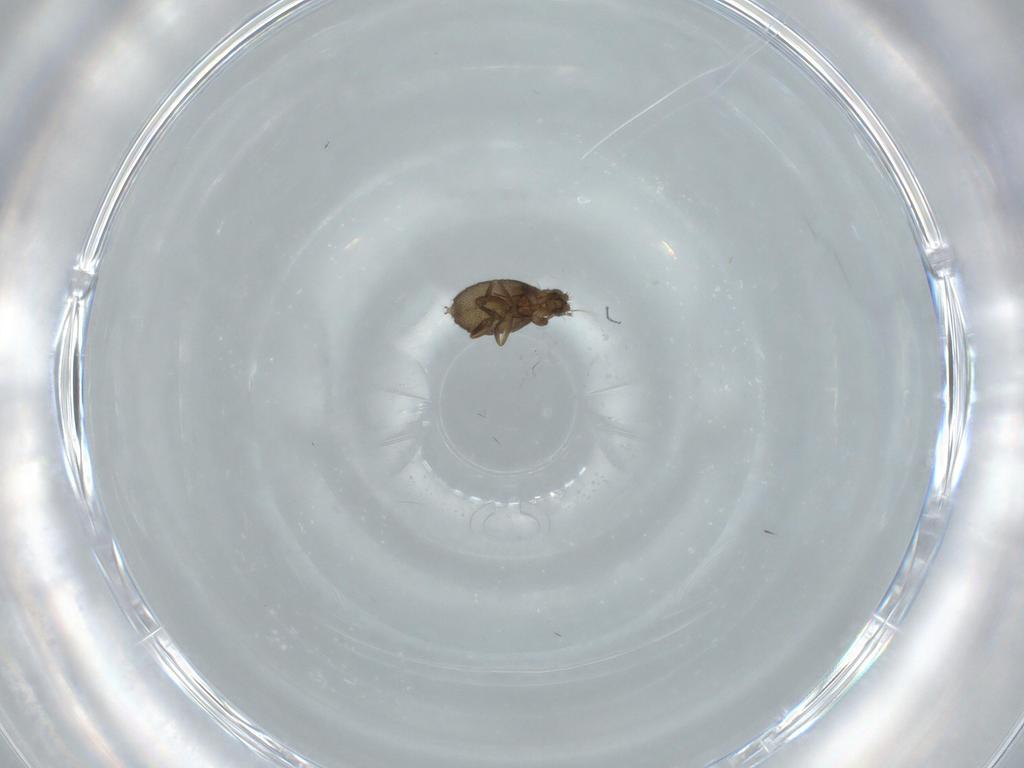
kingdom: Animalia
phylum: Arthropoda
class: Insecta
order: Diptera
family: Phoridae
